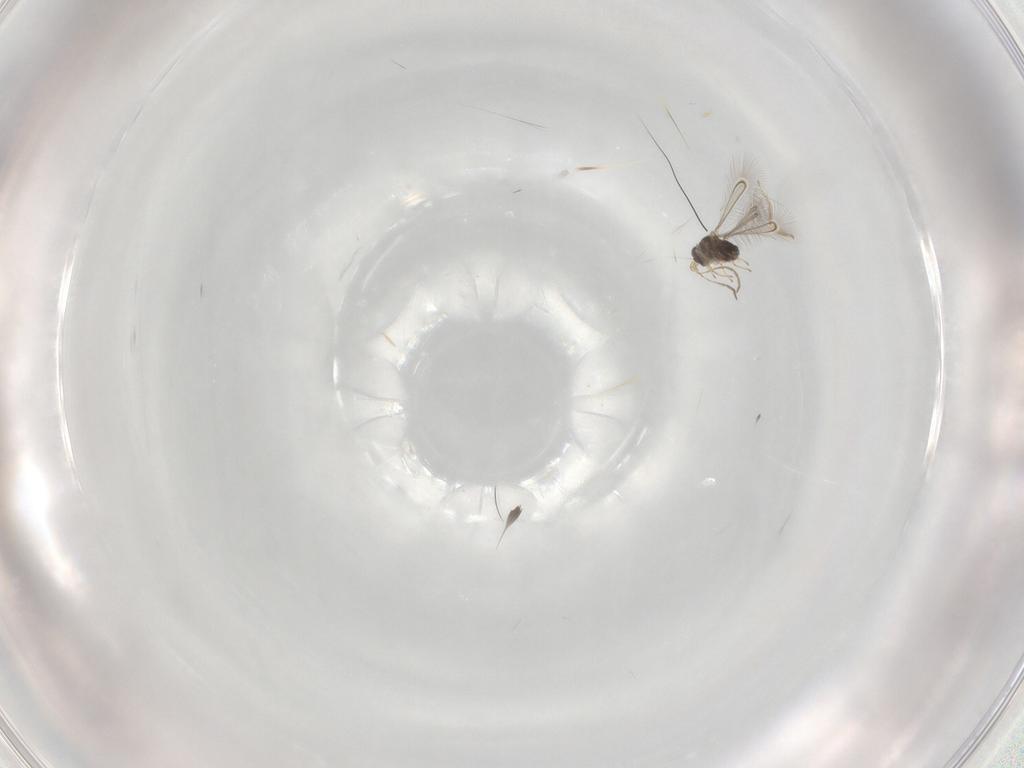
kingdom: Animalia
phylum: Arthropoda
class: Insecta
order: Hymenoptera
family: Mymaridae
